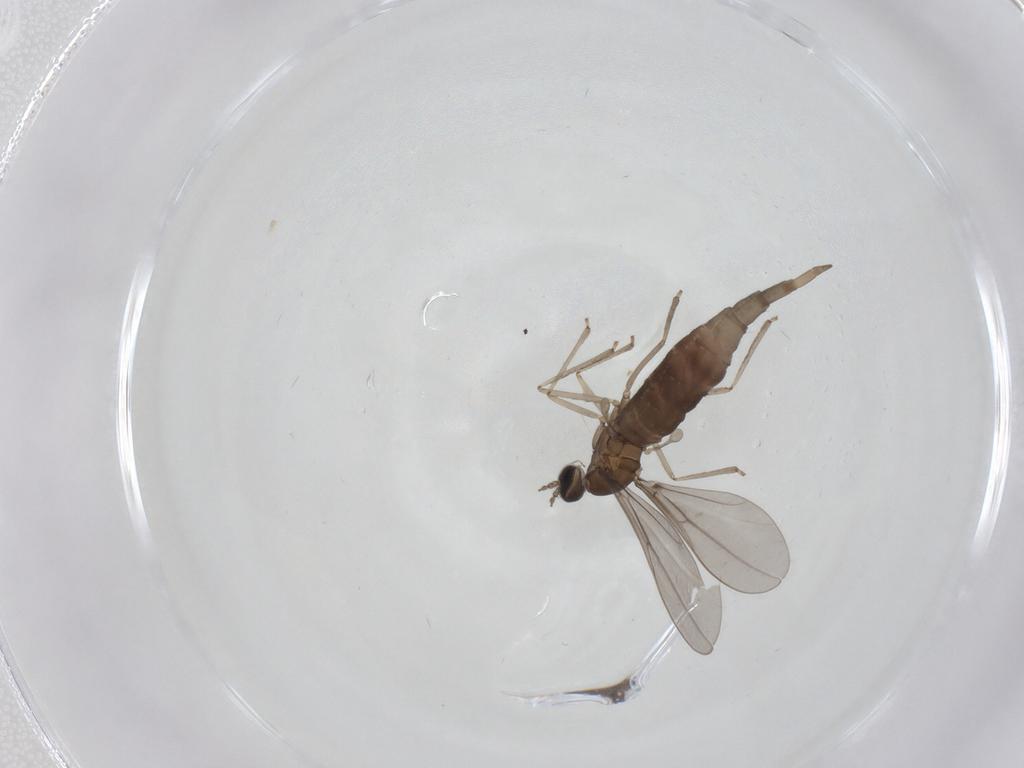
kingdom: Animalia
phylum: Arthropoda
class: Insecta
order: Diptera
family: Cecidomyiidae
